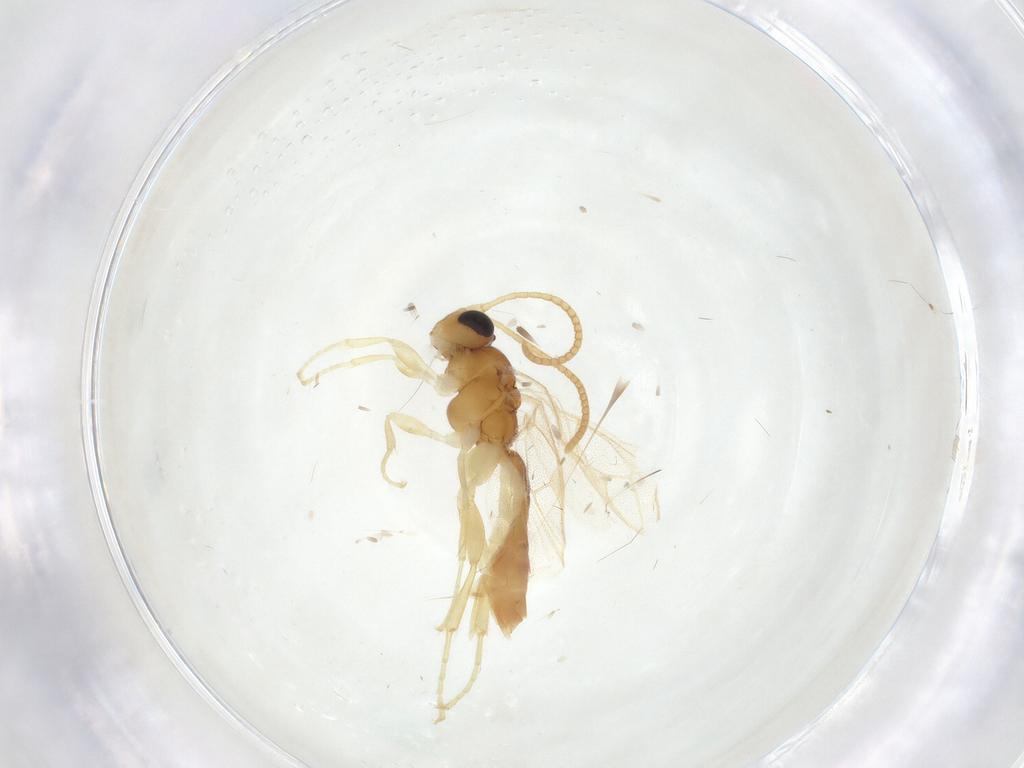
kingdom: Animalia
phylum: Arthropoda
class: Insecta
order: Hymenoptera
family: Ichneumonidae
